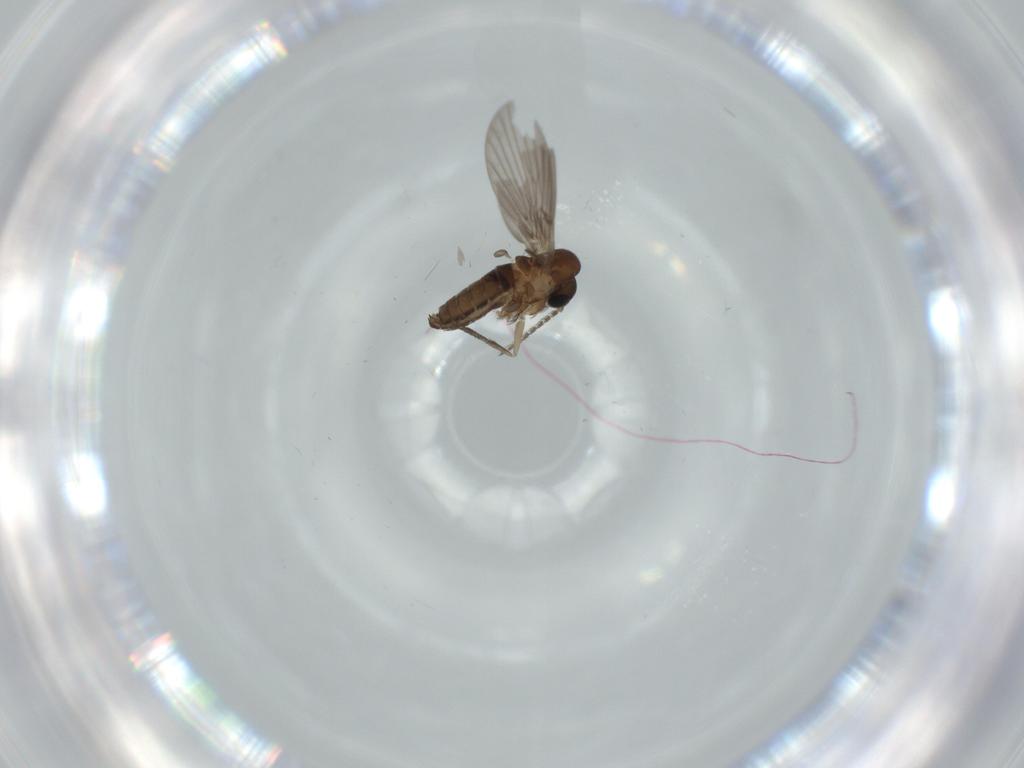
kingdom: Animalia
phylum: Arthropoda
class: Insecta
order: Diptera
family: Psychodidae
